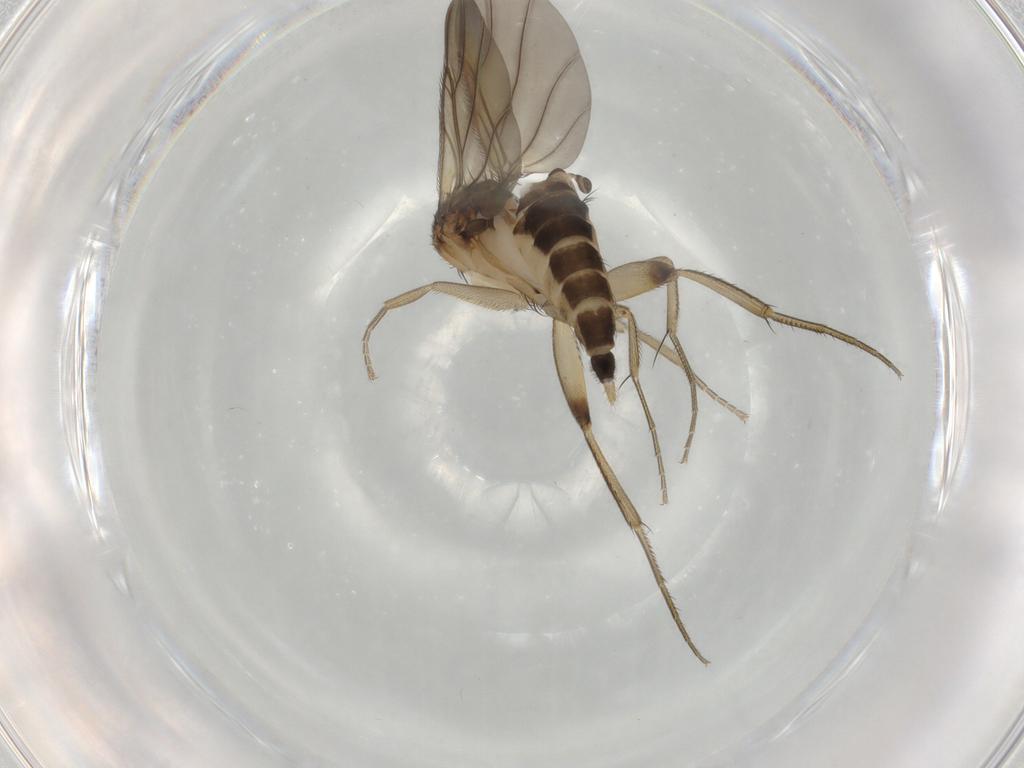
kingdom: Animalia
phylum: Arthropoda
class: Insecta
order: Diptera
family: Phoridae
